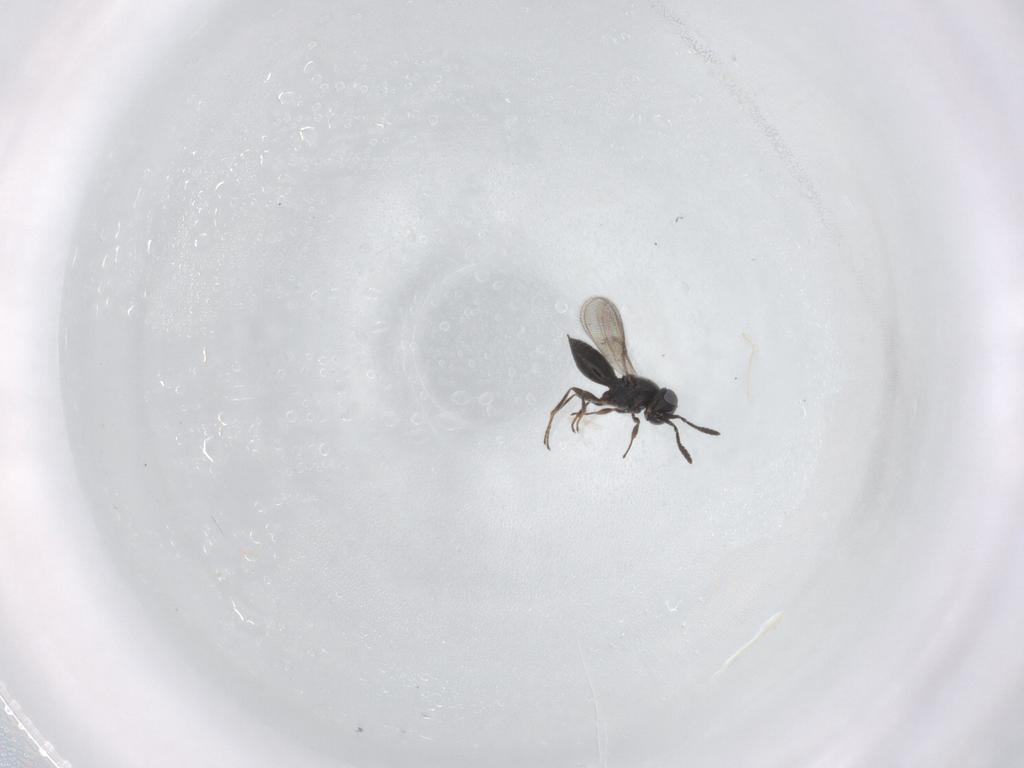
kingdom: Animalia
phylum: Arthropoda
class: Insecta
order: Hymenoptera
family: Scelionidae
